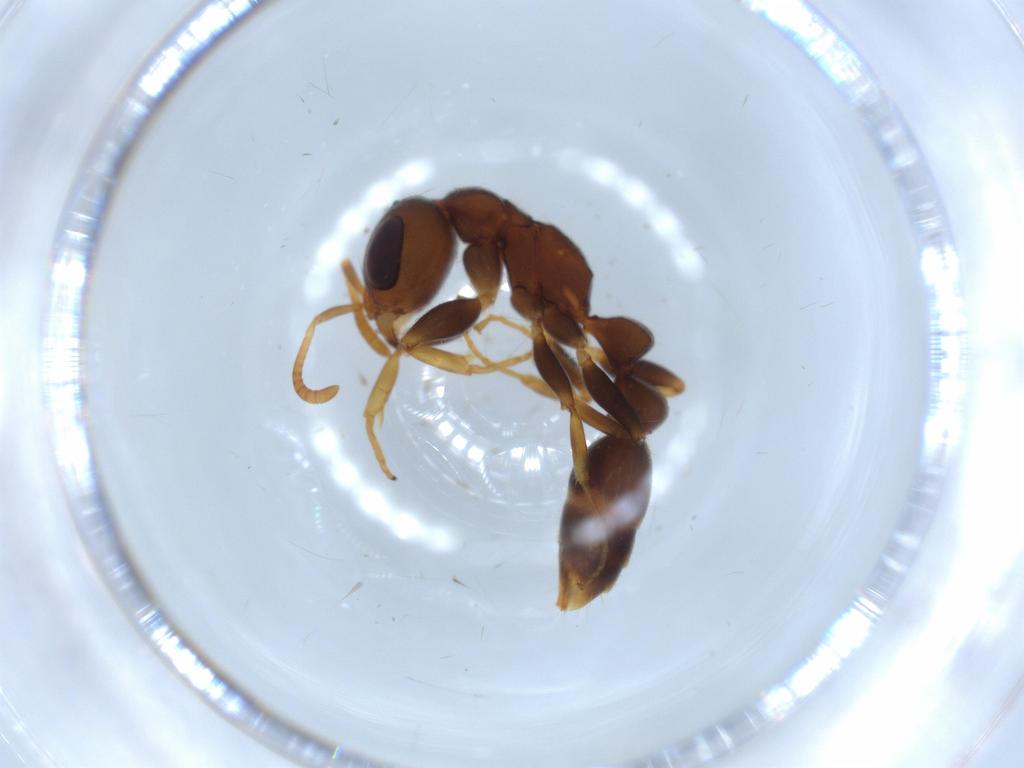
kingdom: Animalia
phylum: Arthropoda
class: Insecta
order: Hymenoptera
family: Formicidae
